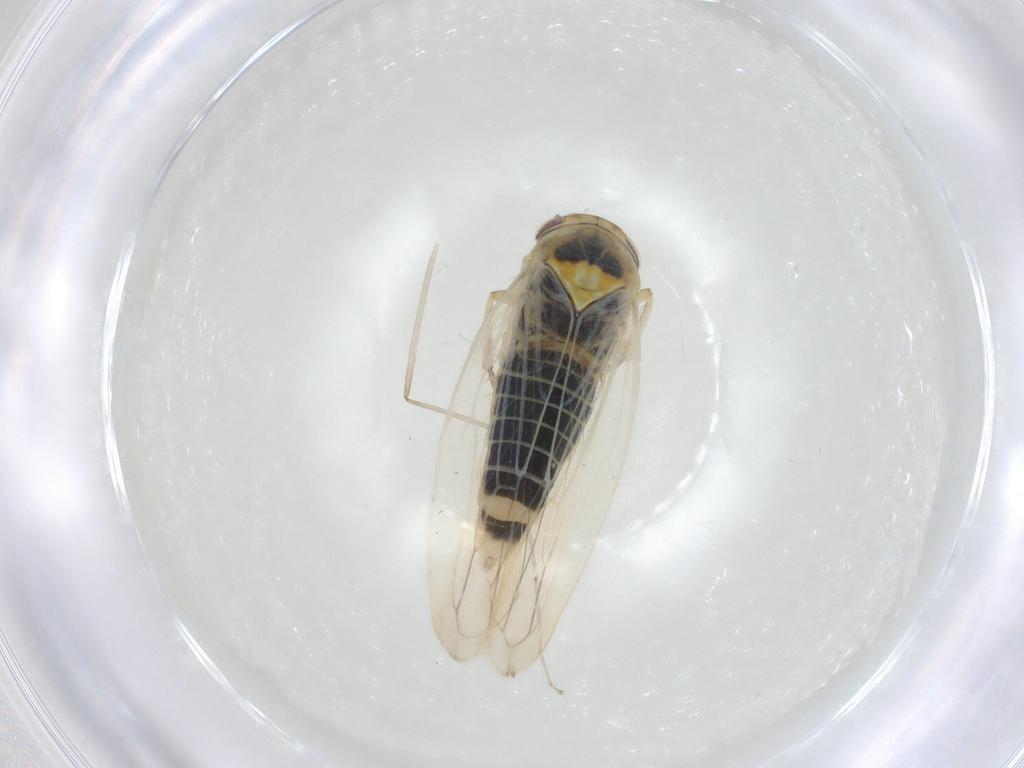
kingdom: Animalia
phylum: Arthropoda
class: Insecta
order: Hemiptera
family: Cicadellidae
